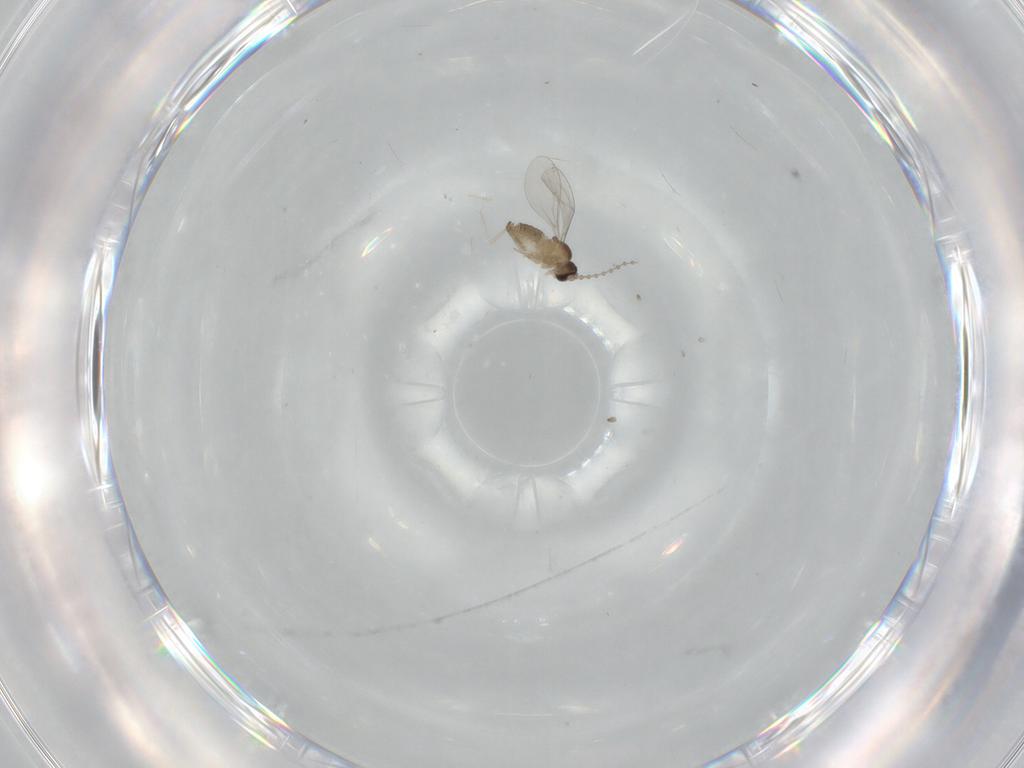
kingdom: Animalia
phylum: Arthropoda
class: Insecta
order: Diptera
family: Cecidomyiidae
